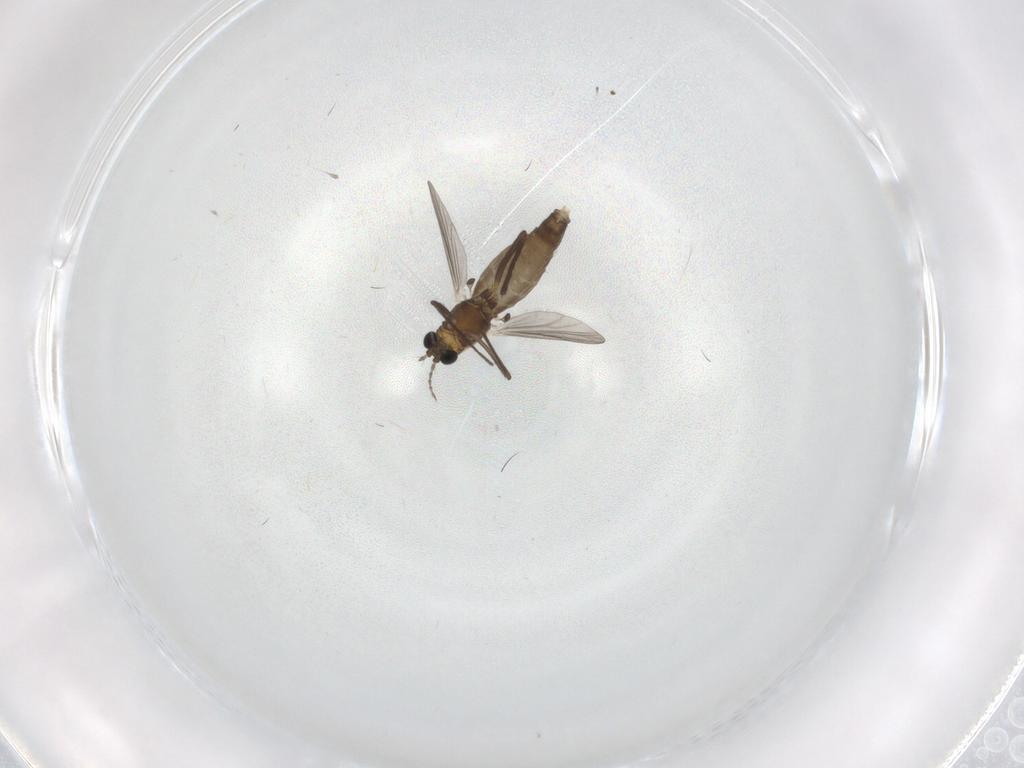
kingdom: Animalia
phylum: Arthropoda
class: Insecta
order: Diptera
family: Chironomidae
